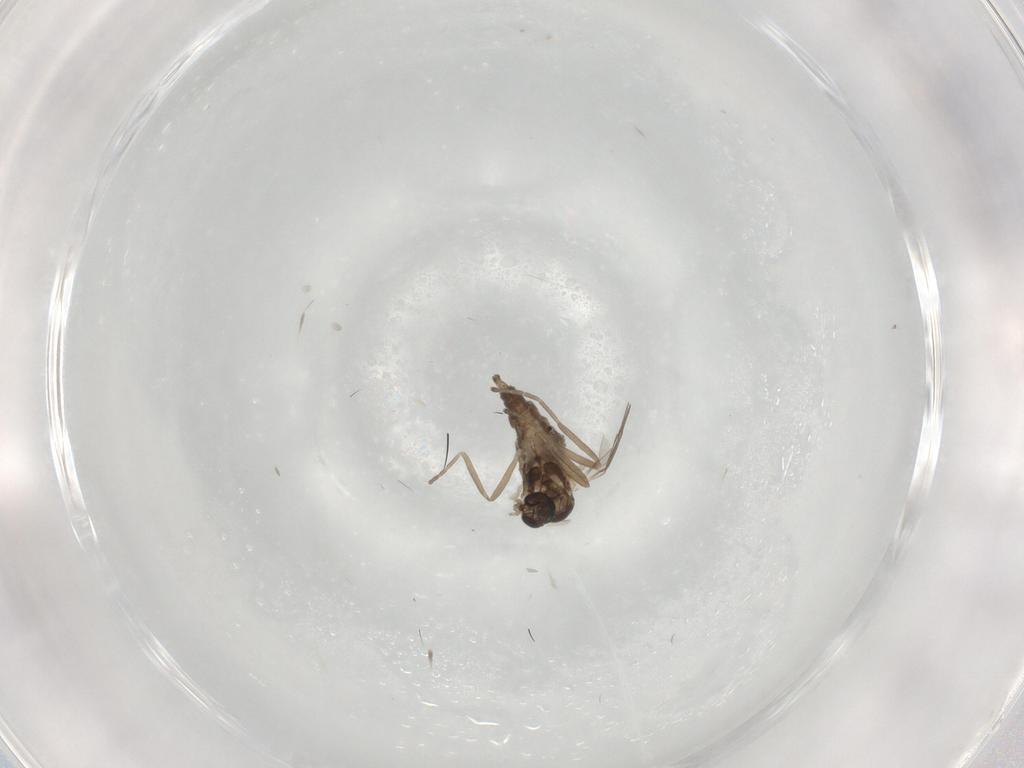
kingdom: Animalia
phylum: Arthropoda
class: Insecta
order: Diptera
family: Cecidomyiidae
